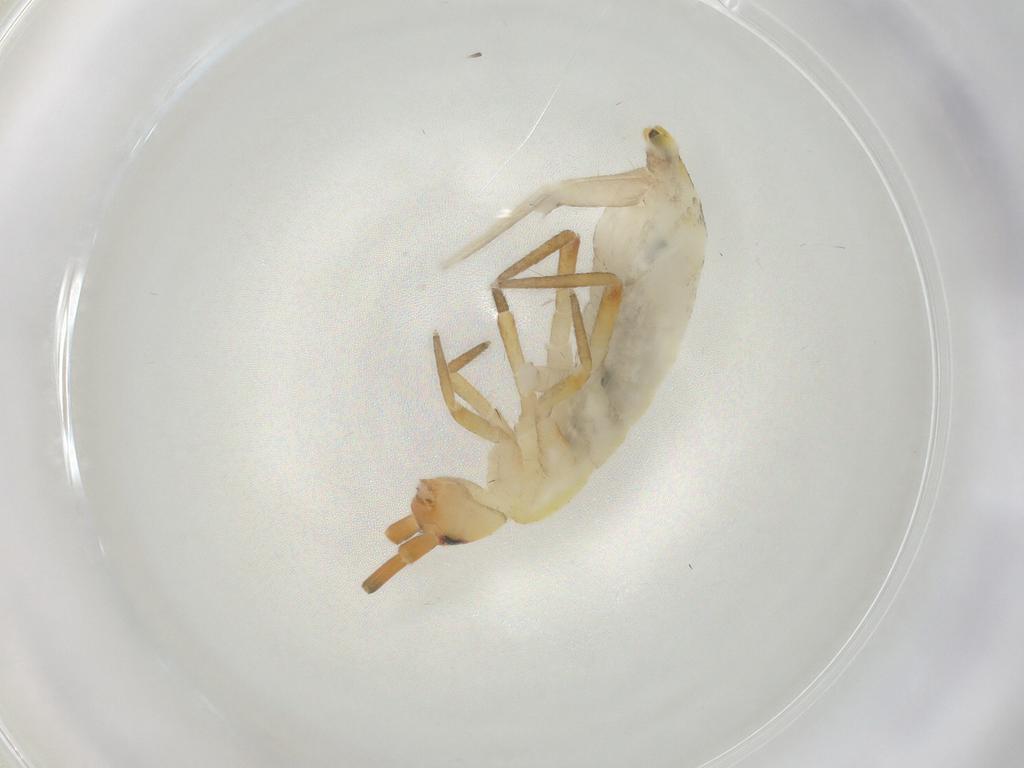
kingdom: Animalia
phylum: Arthropoda
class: Collembola
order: Entomobryomorpha
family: Tomoceridae
